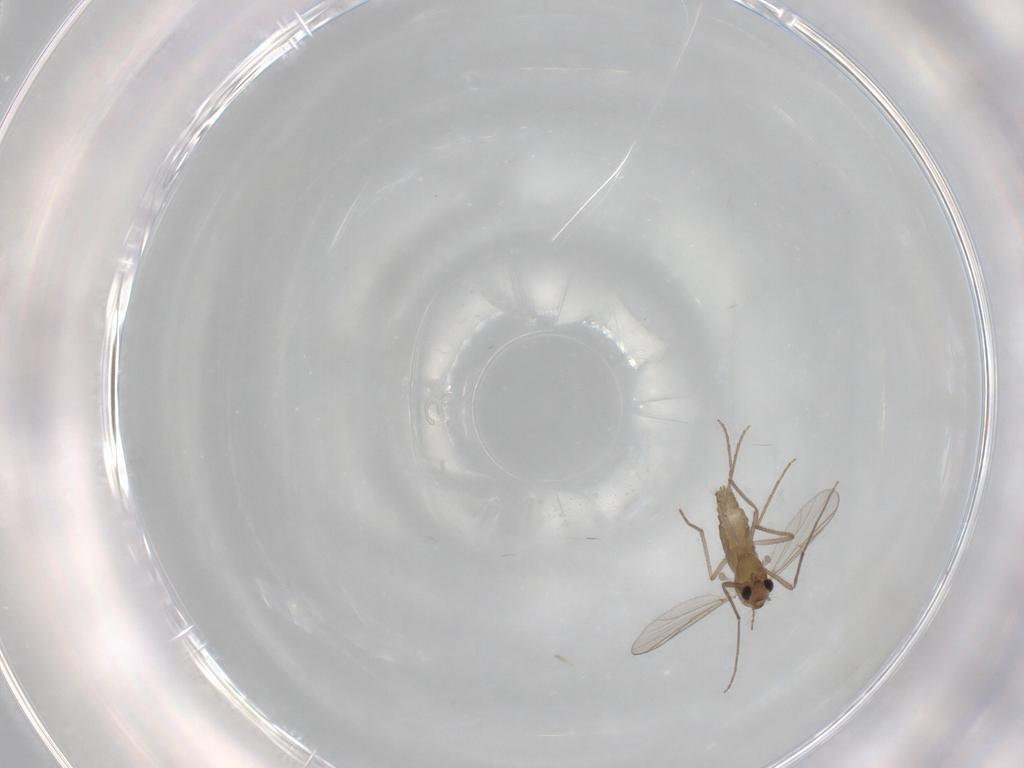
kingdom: Animalia
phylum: Arthropoda
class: Insecta
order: Diptera
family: Chironomidae
